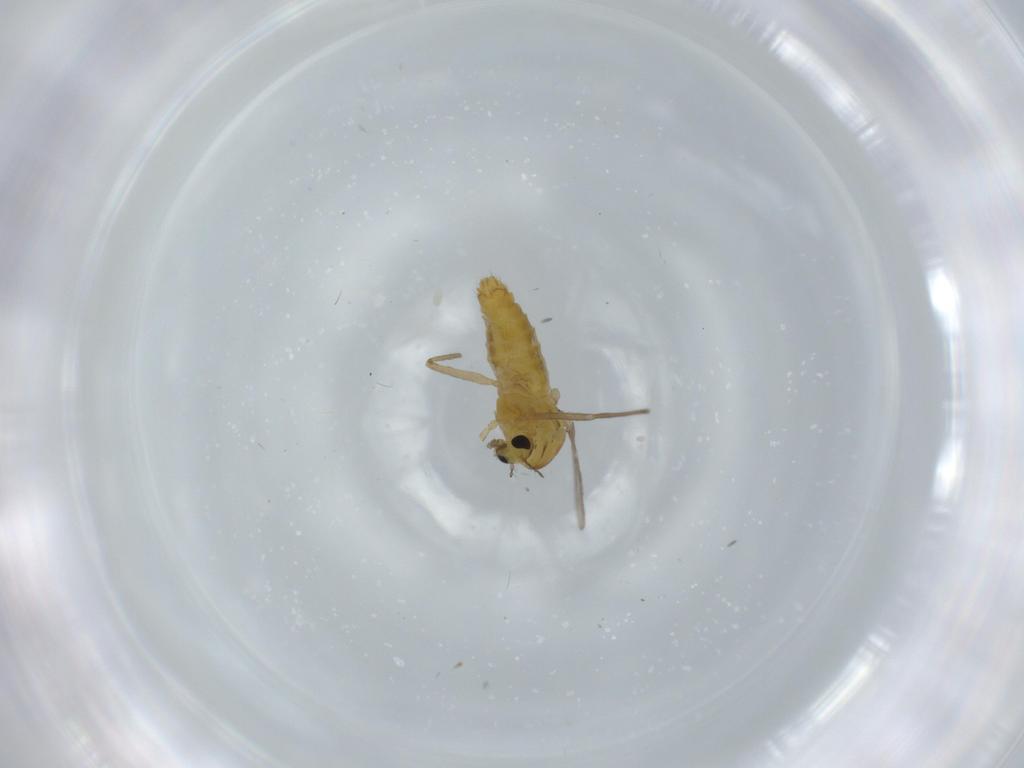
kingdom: Animalia
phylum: Arthropoda
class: Insecta
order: Diptera
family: Chironomidae
